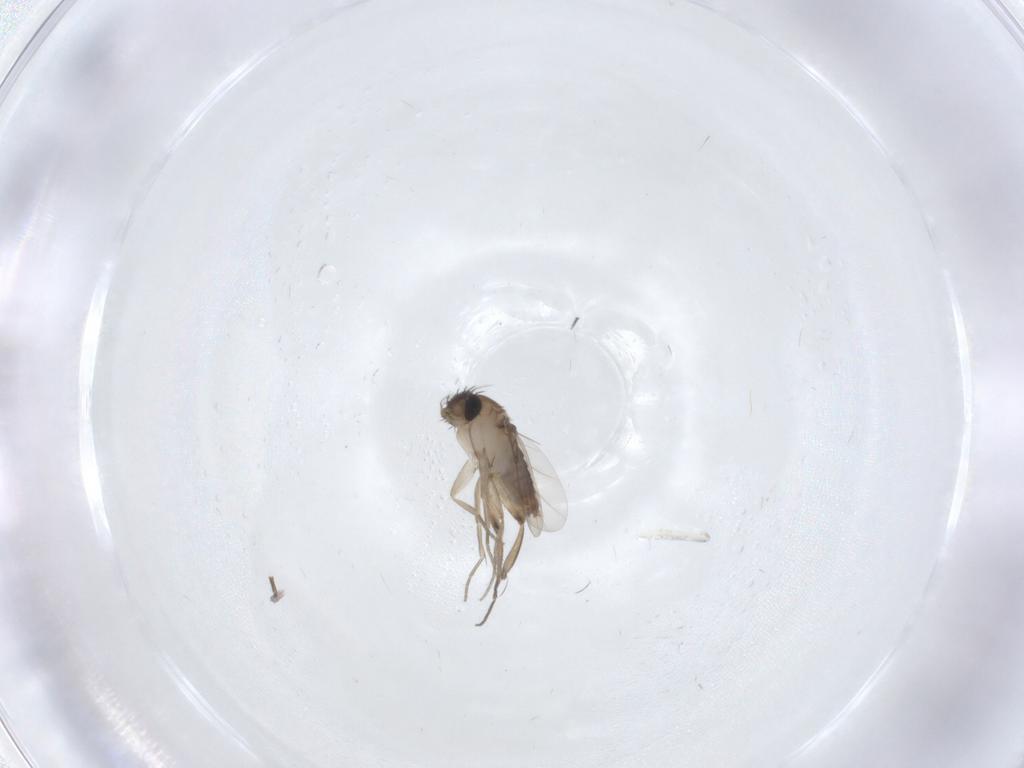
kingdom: Animalia
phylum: Arthropoda
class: Insecta
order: Diptera
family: Phoridae
